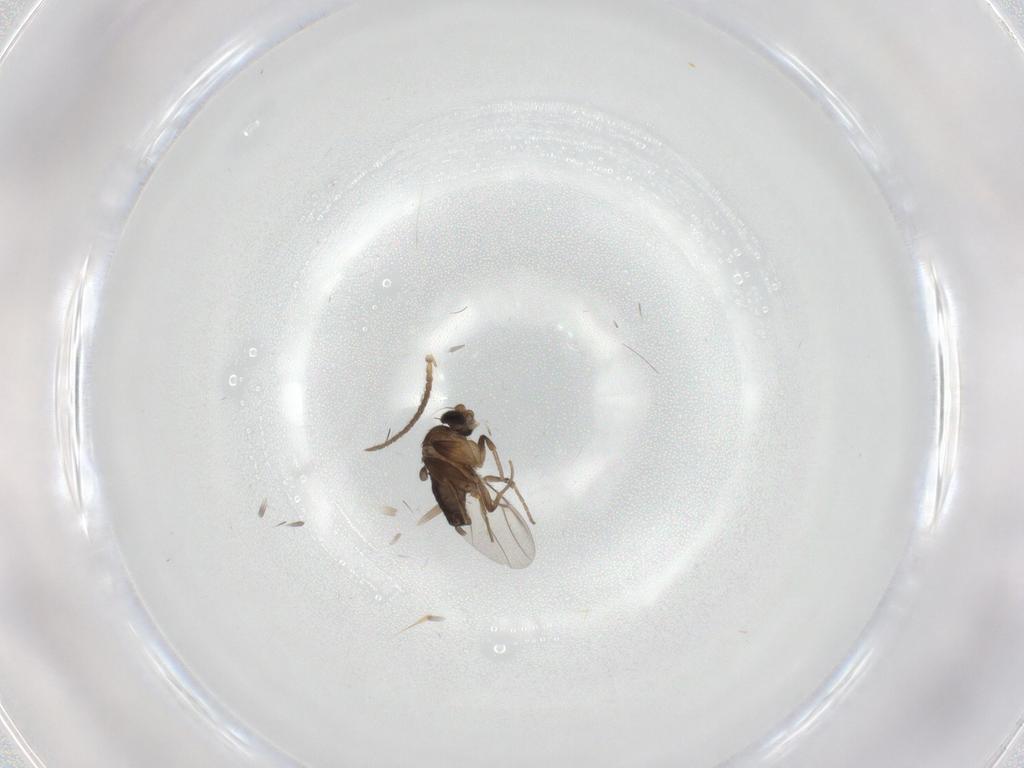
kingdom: Animalia
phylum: Arthropoda
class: Insecta
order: Diptera
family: Keroplatidae
